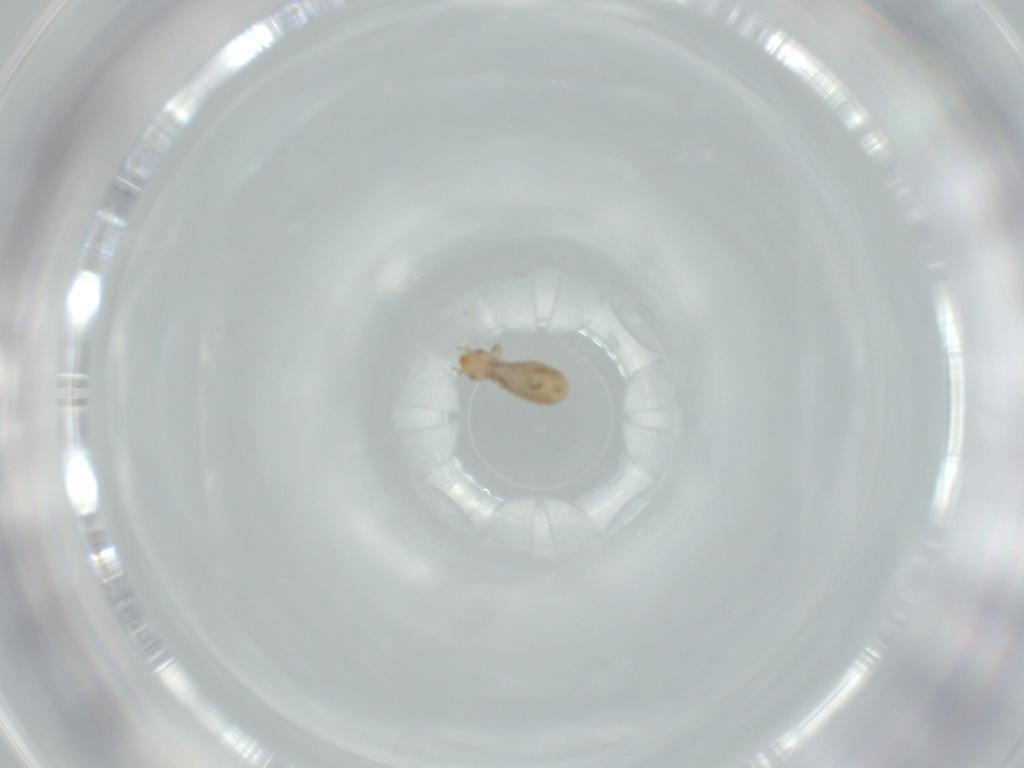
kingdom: Animalia
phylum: Arthropoda
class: Insecta
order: Psocodea
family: Liposcelididae
